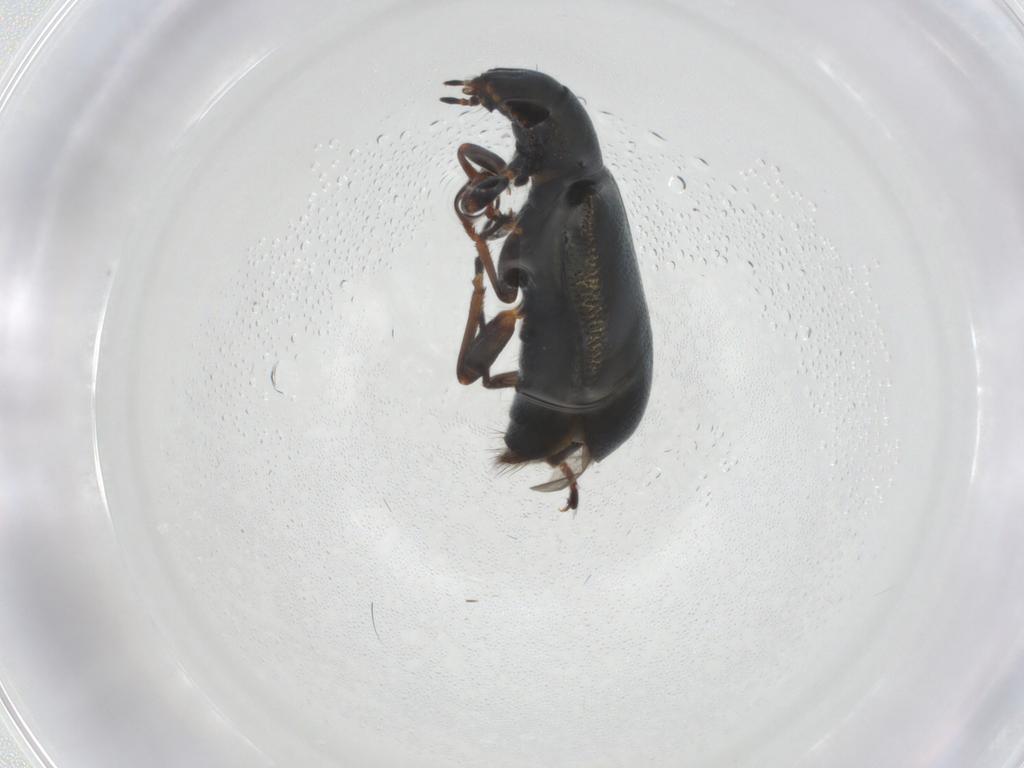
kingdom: Animalia
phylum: Arthropoda
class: Insecta
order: Coleoptera
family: Melyridae
